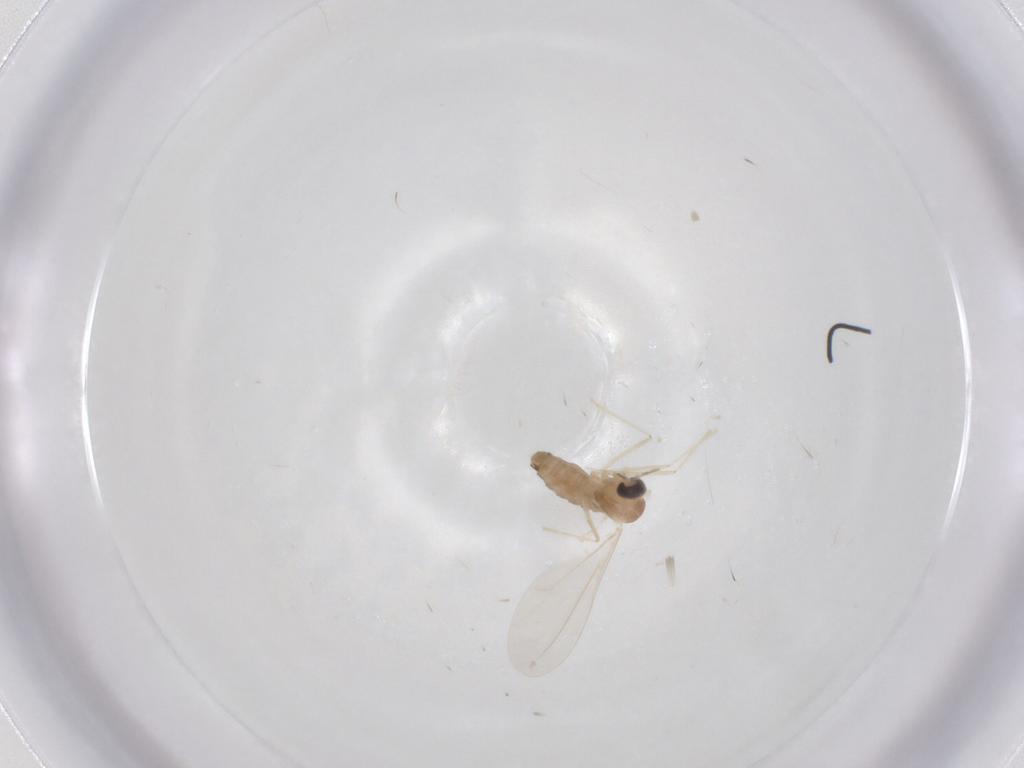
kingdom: Animalia
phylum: Arthropoda
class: Insecta
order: Diptera
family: Cecidomyiidae
